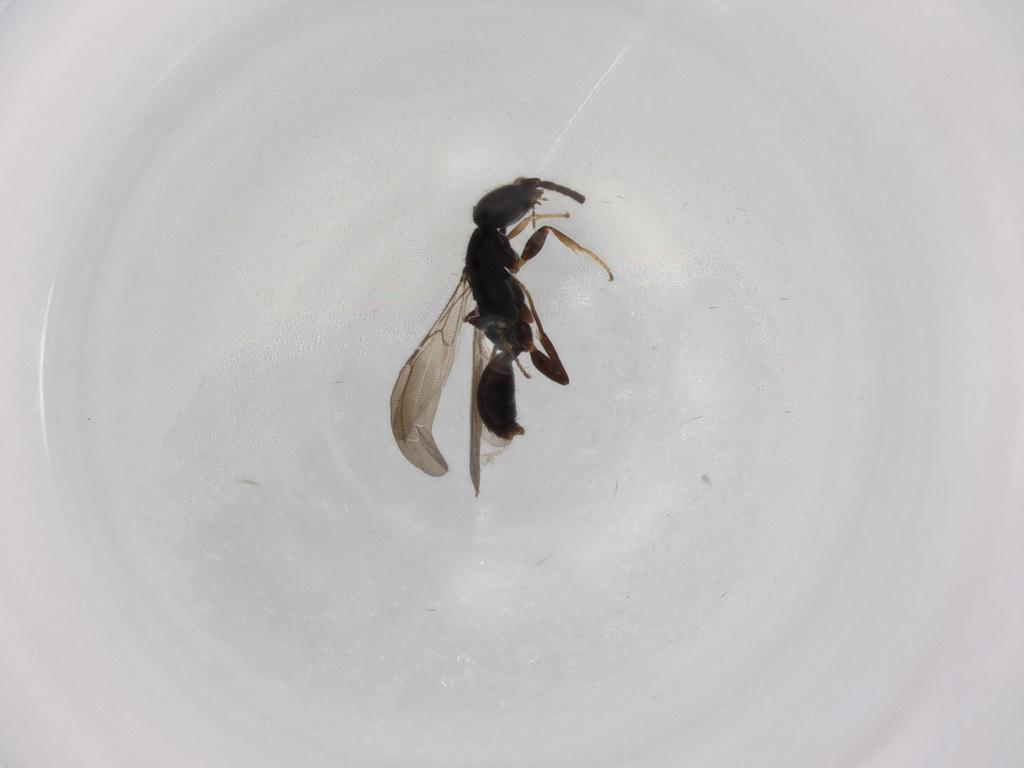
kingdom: Animalia
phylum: Arthropoda
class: Insecta
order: Hymenoptera
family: Bethylidae
